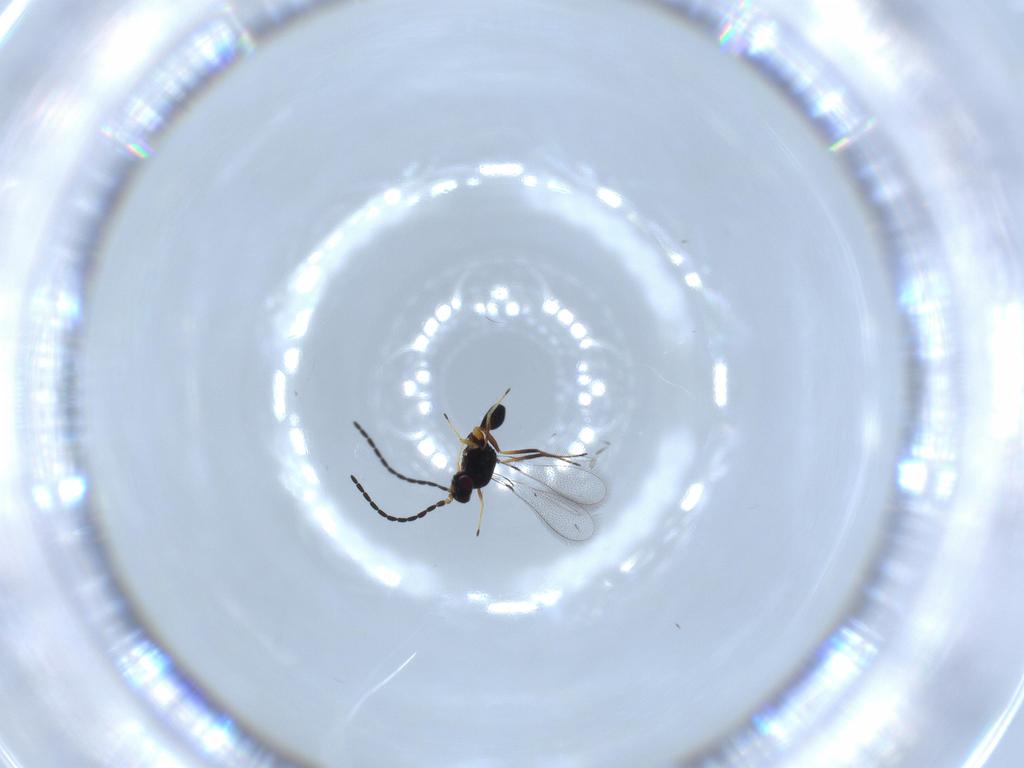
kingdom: Animalia
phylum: Arthropoda
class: Insecta
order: Hymenoptera
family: Mymaridae
